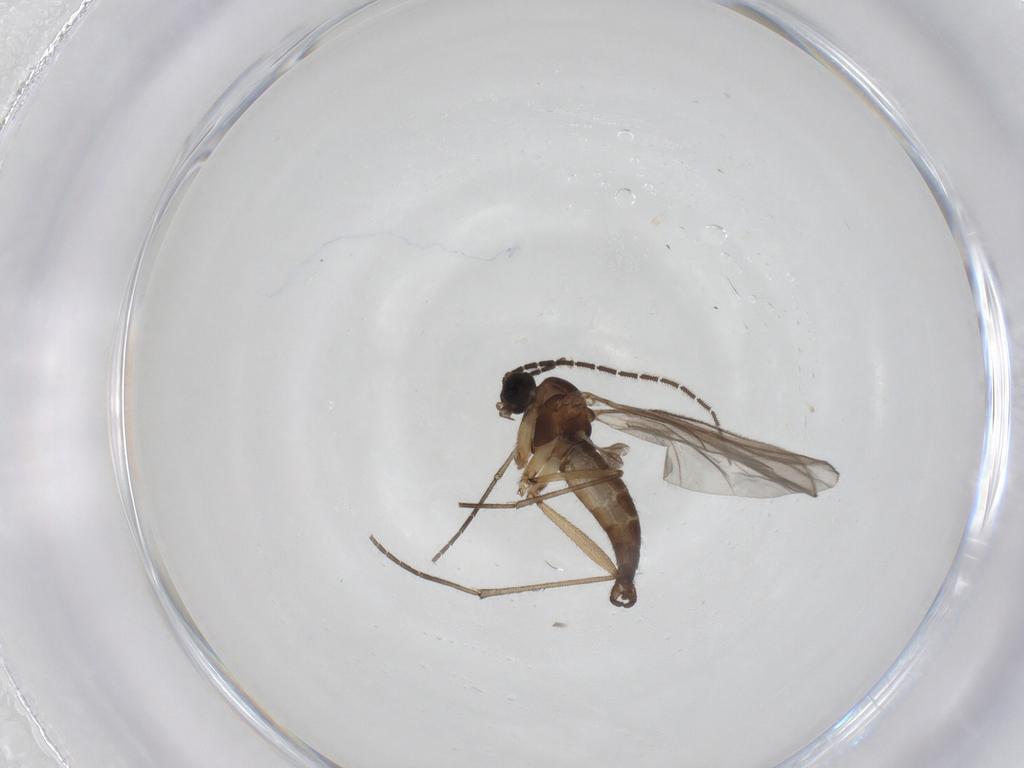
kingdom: Animalia
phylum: Arthropoda
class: Insecta
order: Diptera
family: Sciaridae
